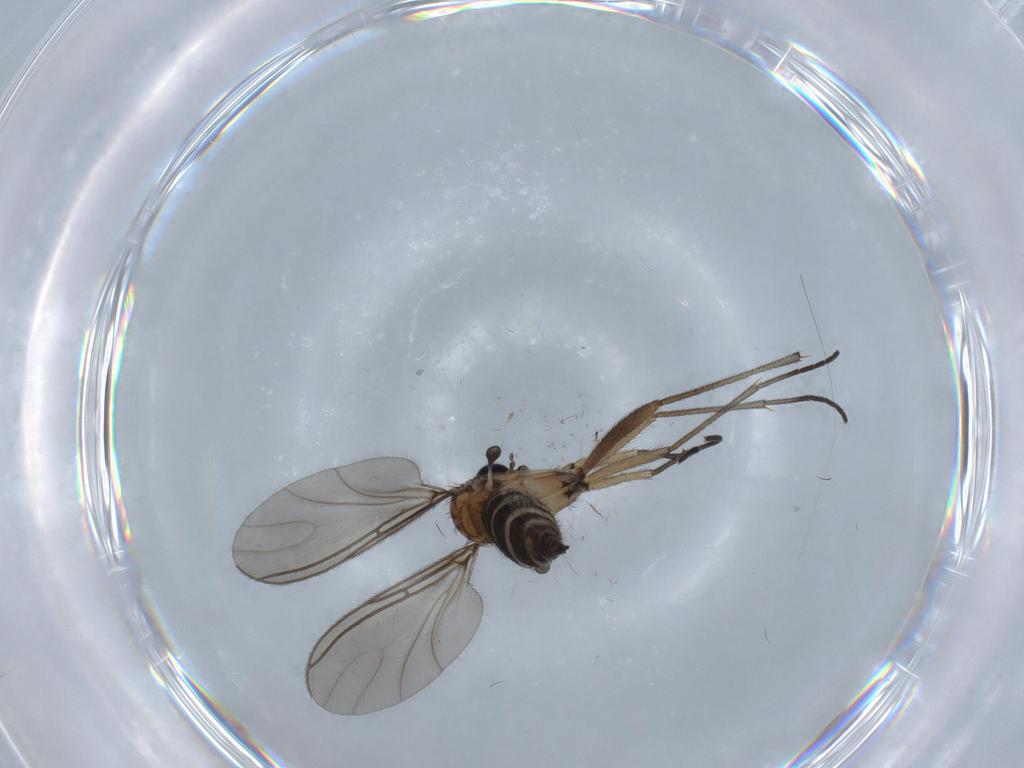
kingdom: Animalia
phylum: Arthropoda
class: Insecta
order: Diptera
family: Sciaridae
